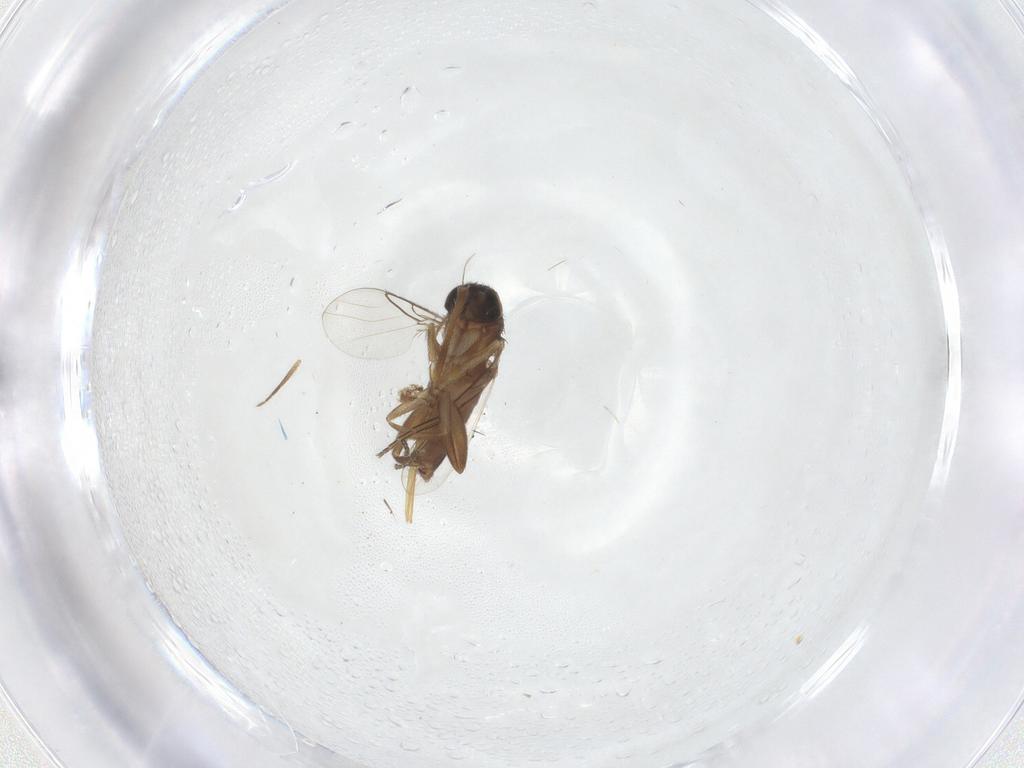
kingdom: Animalia
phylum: Arthropoda
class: Insecta
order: Diptera
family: Phoridae
